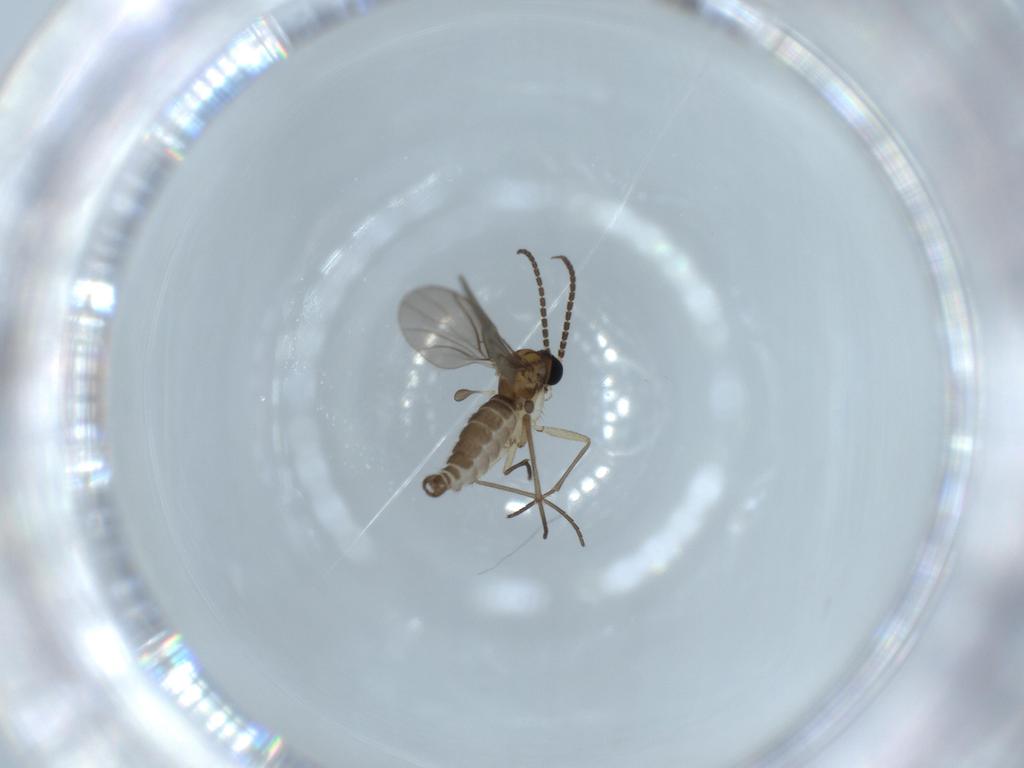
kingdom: Animalia
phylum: Arthropoda
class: Insecta
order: Diptera
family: Sciaridae
